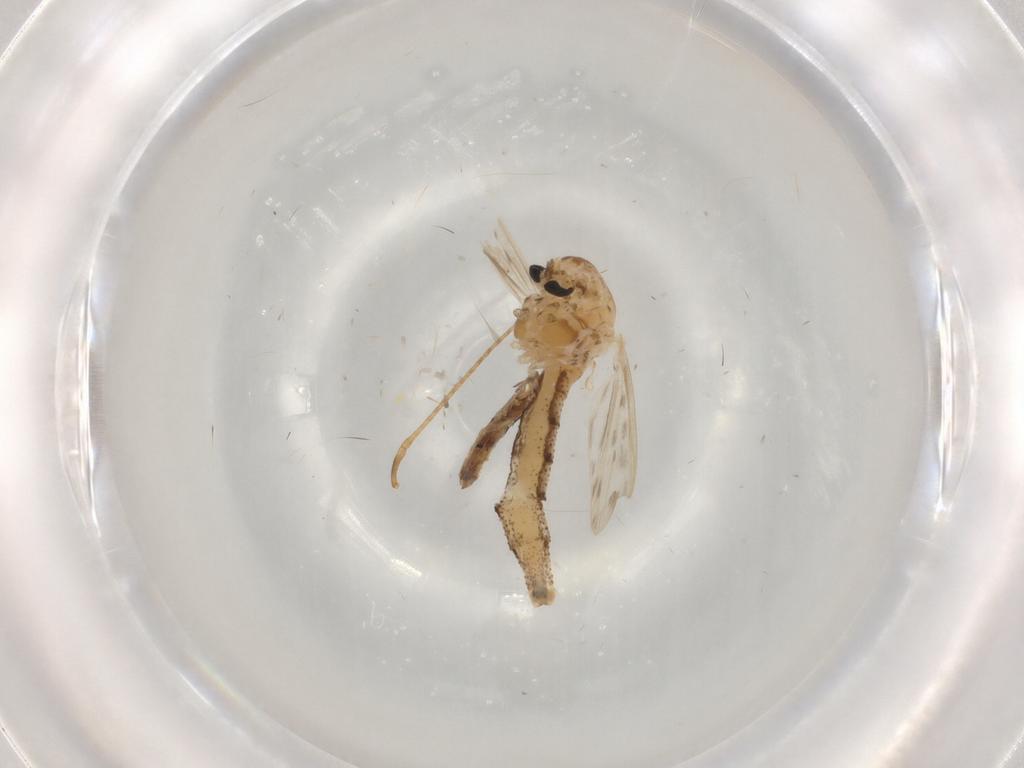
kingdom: Animalia
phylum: Arthropoda
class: Insecta
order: Diptera
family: Chaoboridae
